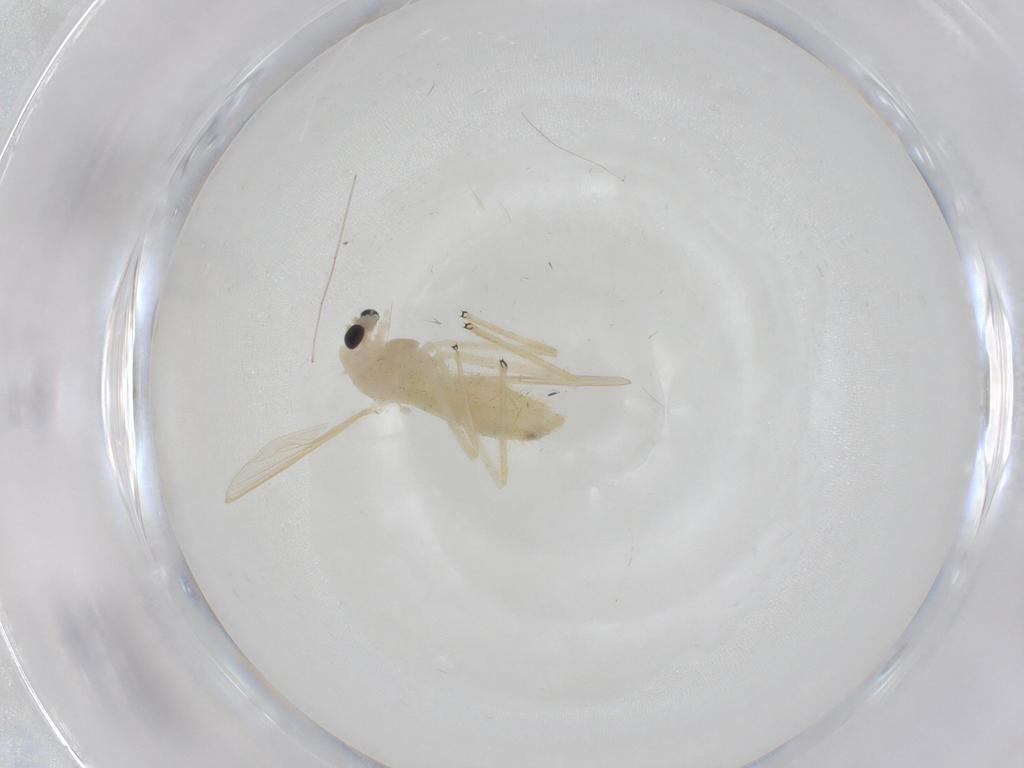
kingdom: Animalia
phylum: Arthropoda
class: Insecta
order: Diptera
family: Chironomidae
